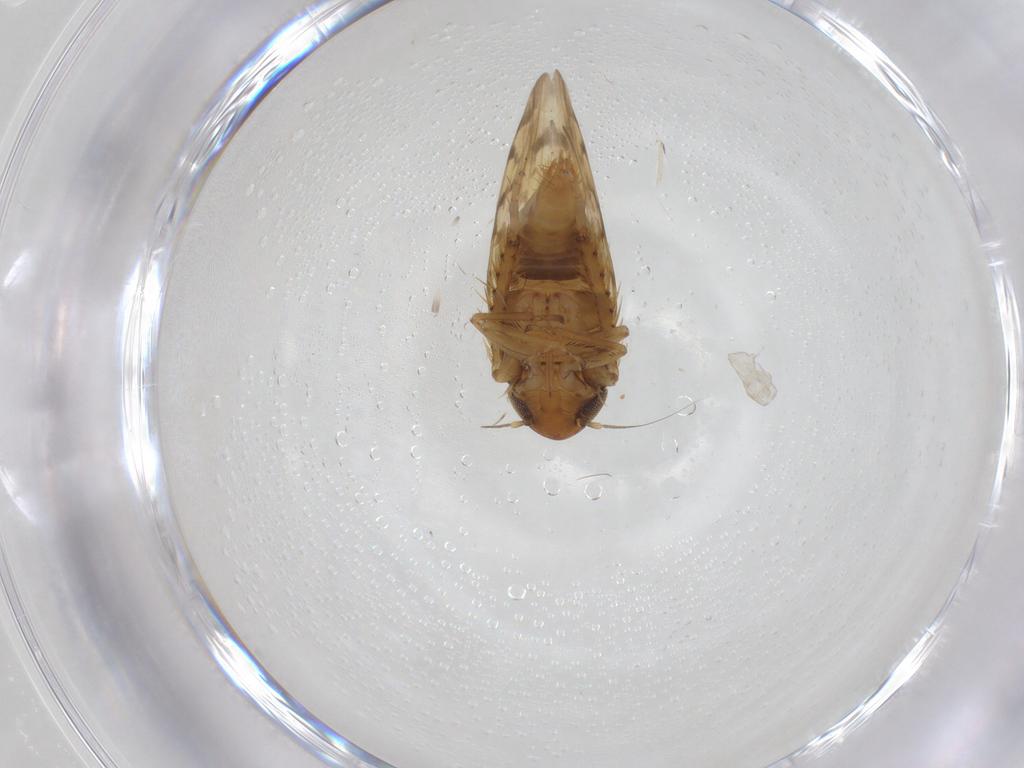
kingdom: Animalia
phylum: Arthropoda
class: Insecta
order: Hemiptera
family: Cicadellidae
